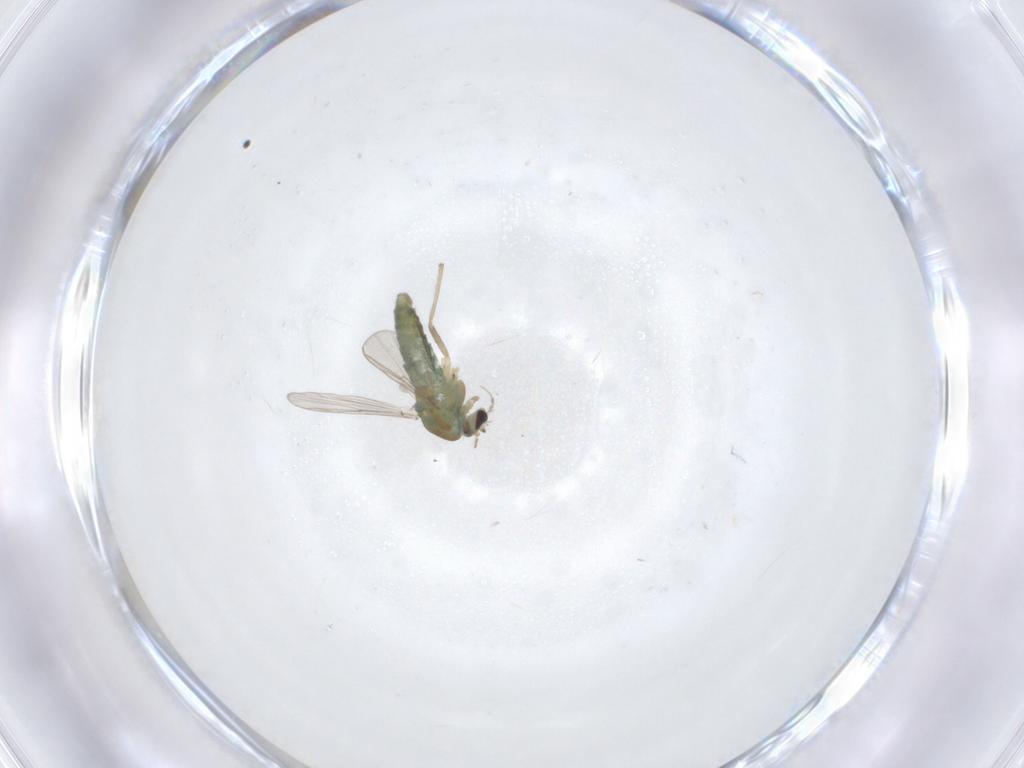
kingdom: Animalia
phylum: Arthropoda
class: Insecta
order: Diptera
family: Chironomidae
